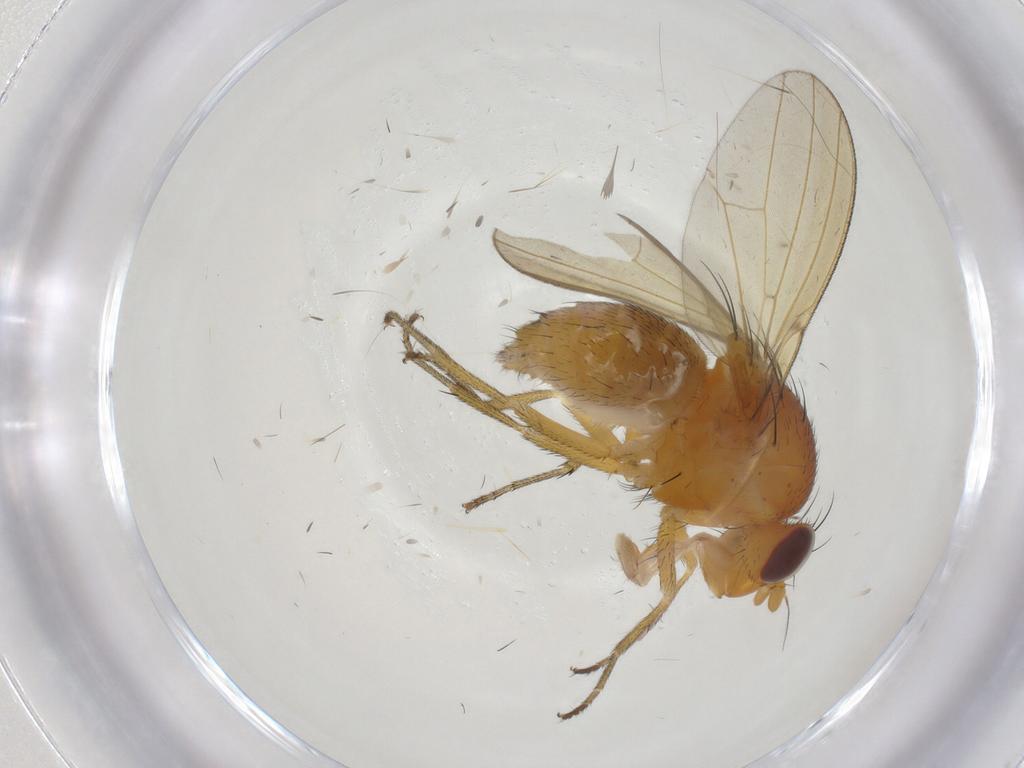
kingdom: Animalia
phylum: Arthropoda
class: Insecta
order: Diptera
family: Lauxaniidae
